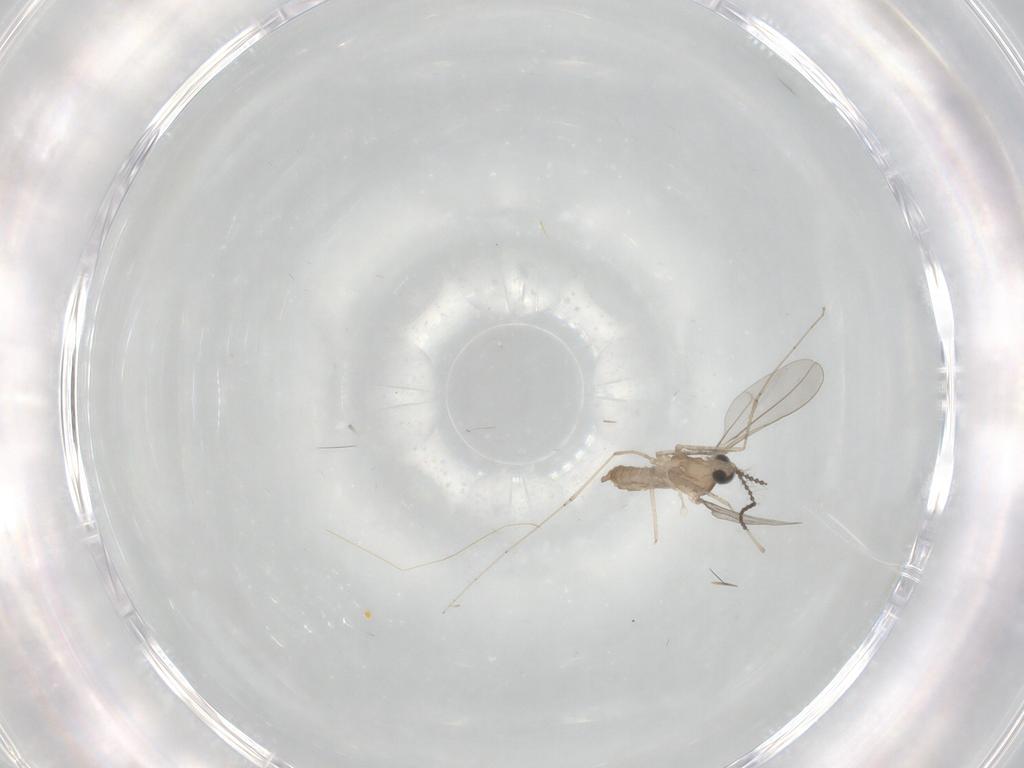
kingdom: Animalia
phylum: Arthropoda
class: Insecta
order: Diptera
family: Cecidomyiidae
